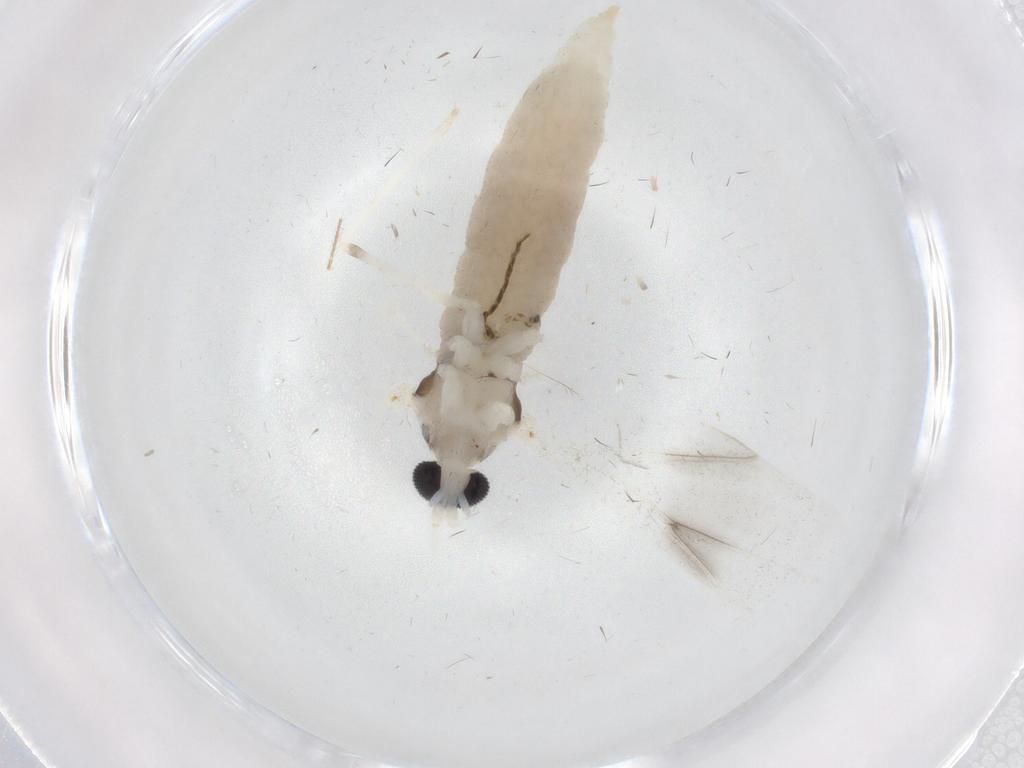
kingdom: Animalia
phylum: Arthropoda
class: Insecta
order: Diptera
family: Cecidomyiidae
